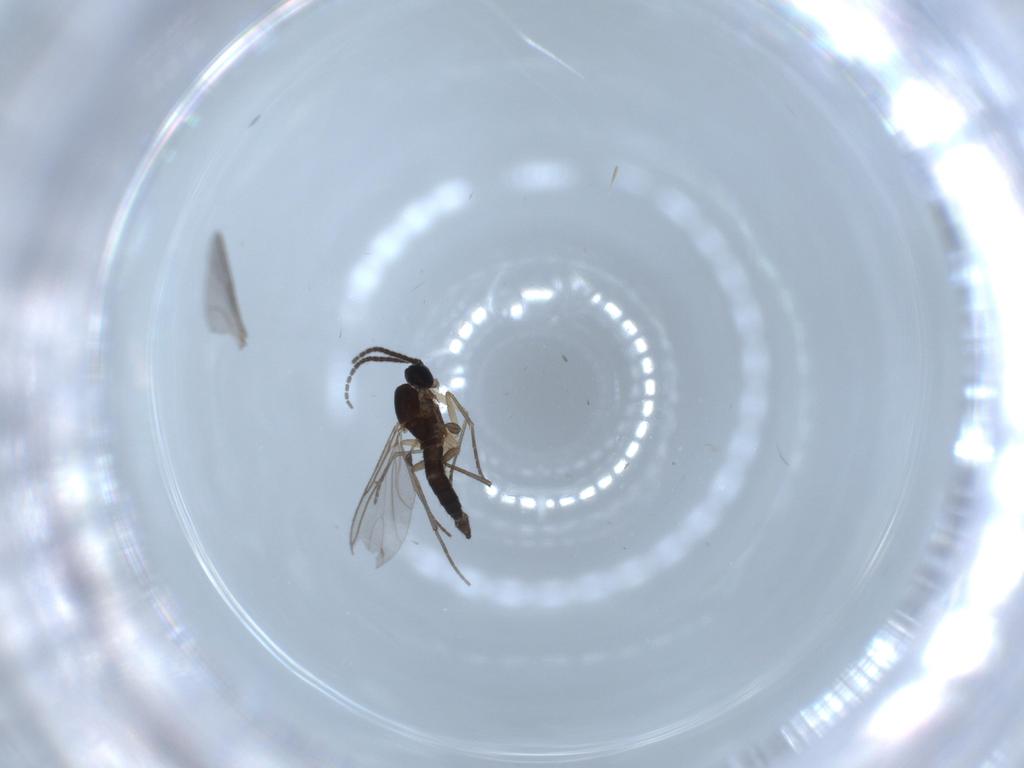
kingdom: Animalia
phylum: Arthropoda
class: Insecta
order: Diptera
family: Sciaridae
